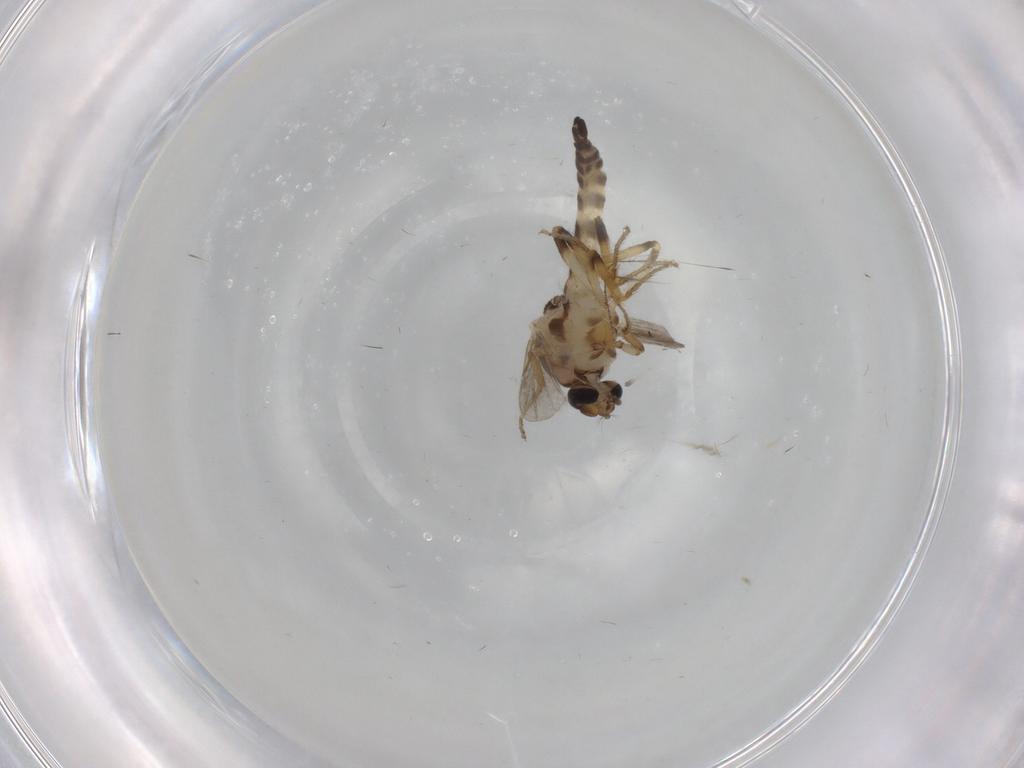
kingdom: Animalia
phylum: Arthropoda
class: Insecta
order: Diptera
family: Ceratopogonidae
